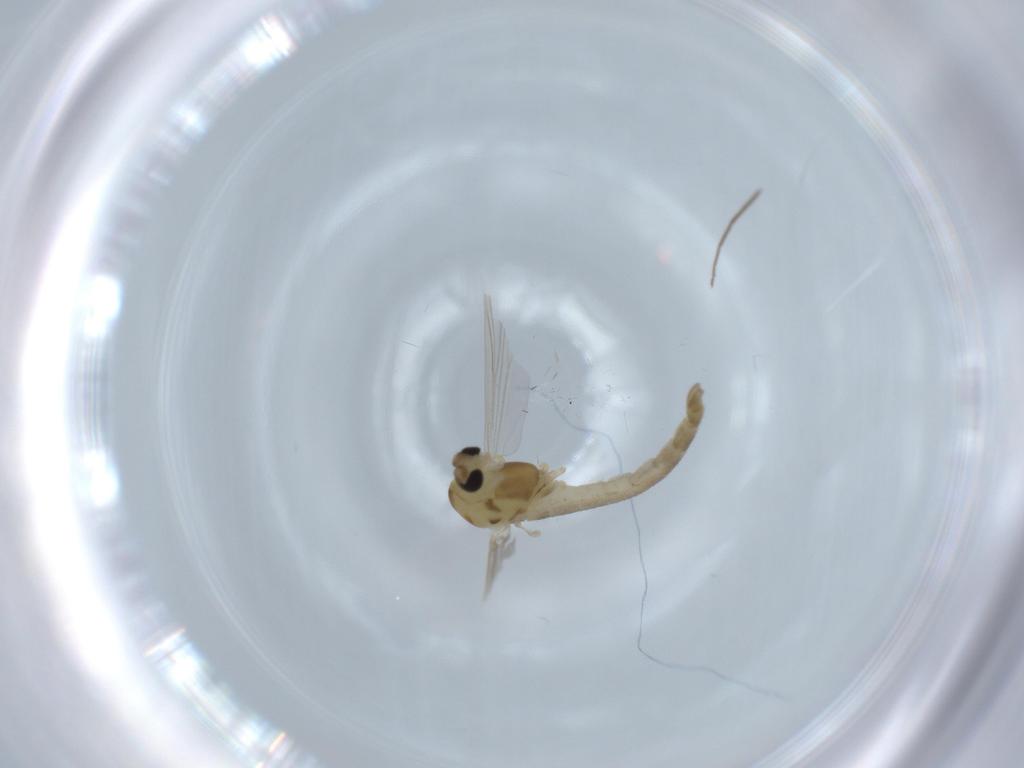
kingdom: Animalia
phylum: Arthropoda
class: Insecta
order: Diptera
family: Chironomidae
